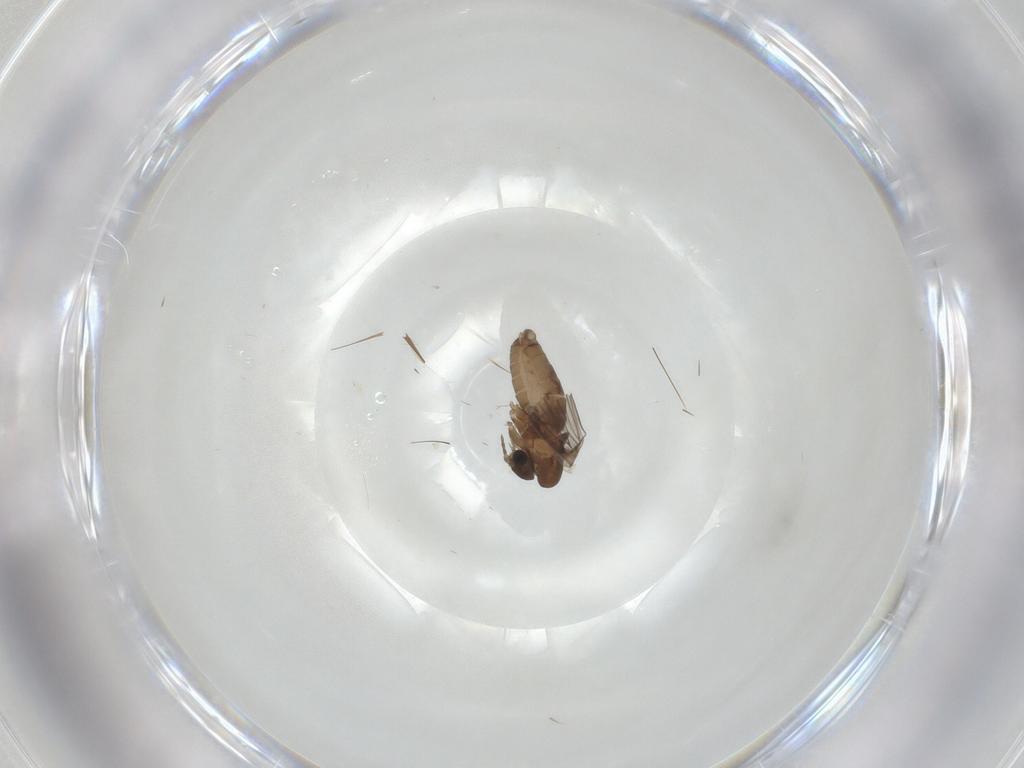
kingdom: Animalia
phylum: Arthropoda
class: Insecta
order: Diptera
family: Psychodidae
